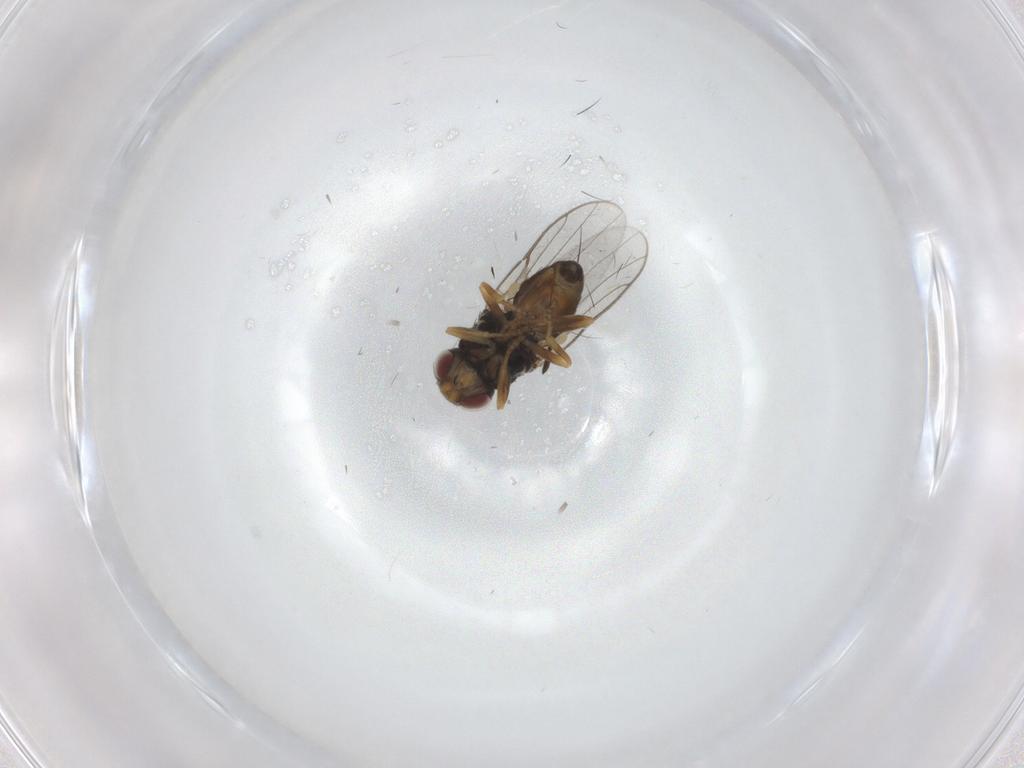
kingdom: Animalia
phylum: Arthropoda
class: Insecta
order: Diptera
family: Chloropidae
